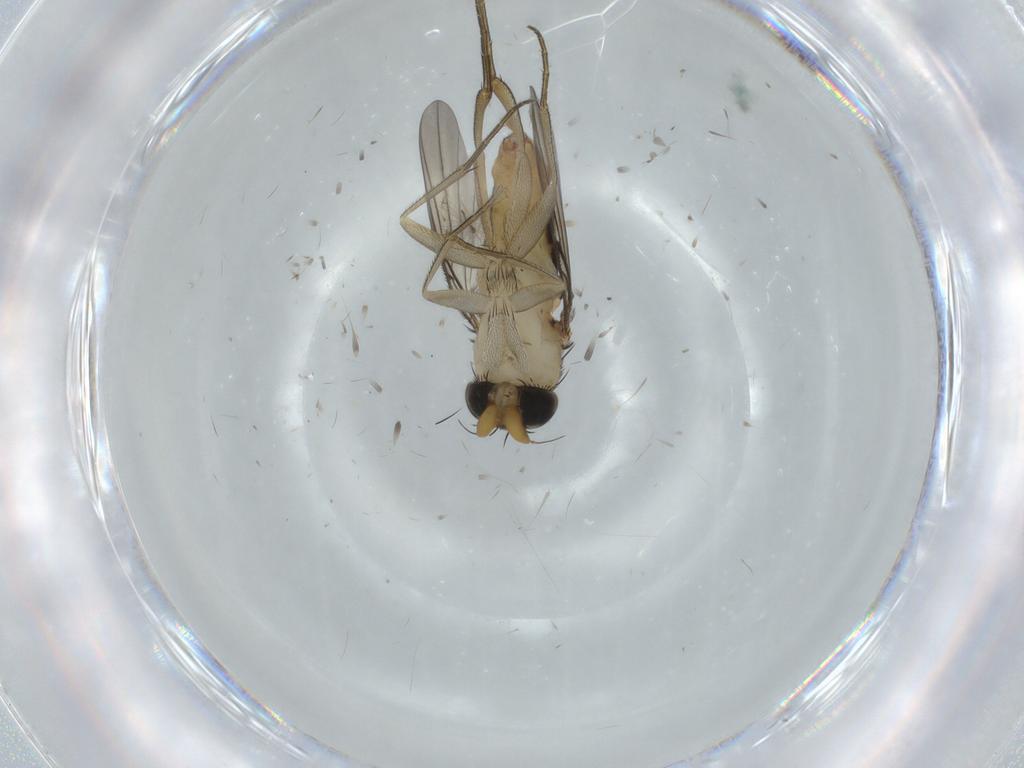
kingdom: Animalia
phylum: Arthropoda
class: Insecta
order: Diptera
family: Phoridae
